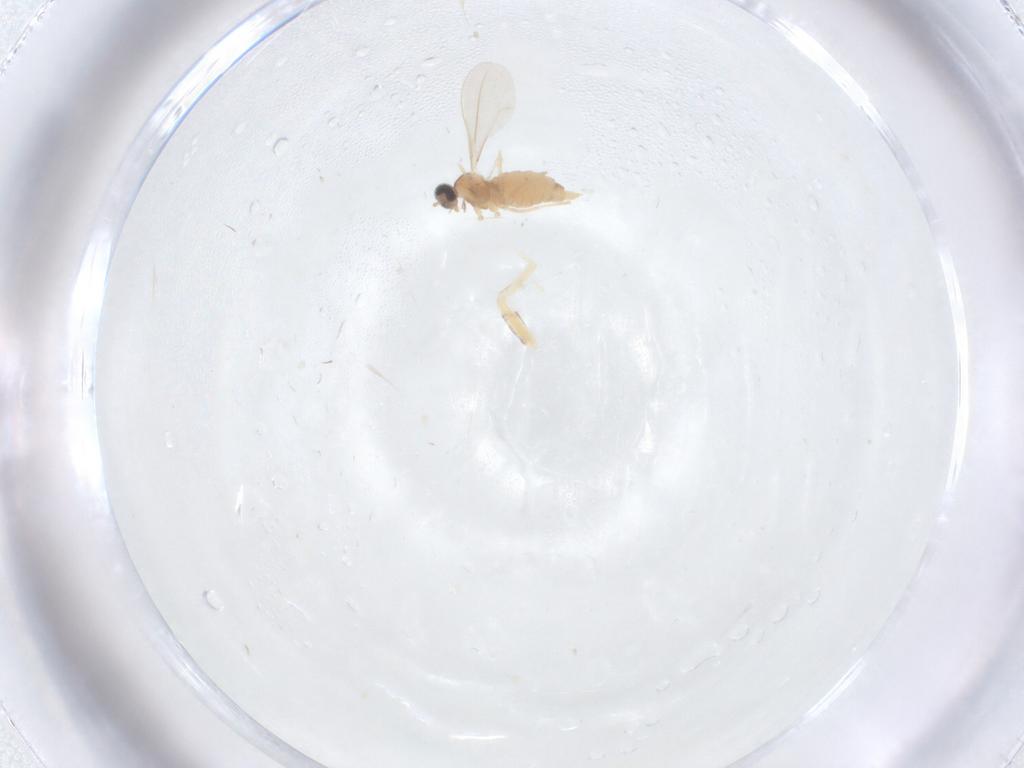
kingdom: Animalia
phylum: Arthropoda
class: Insecta
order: Diptera
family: Cecidomyiidae
